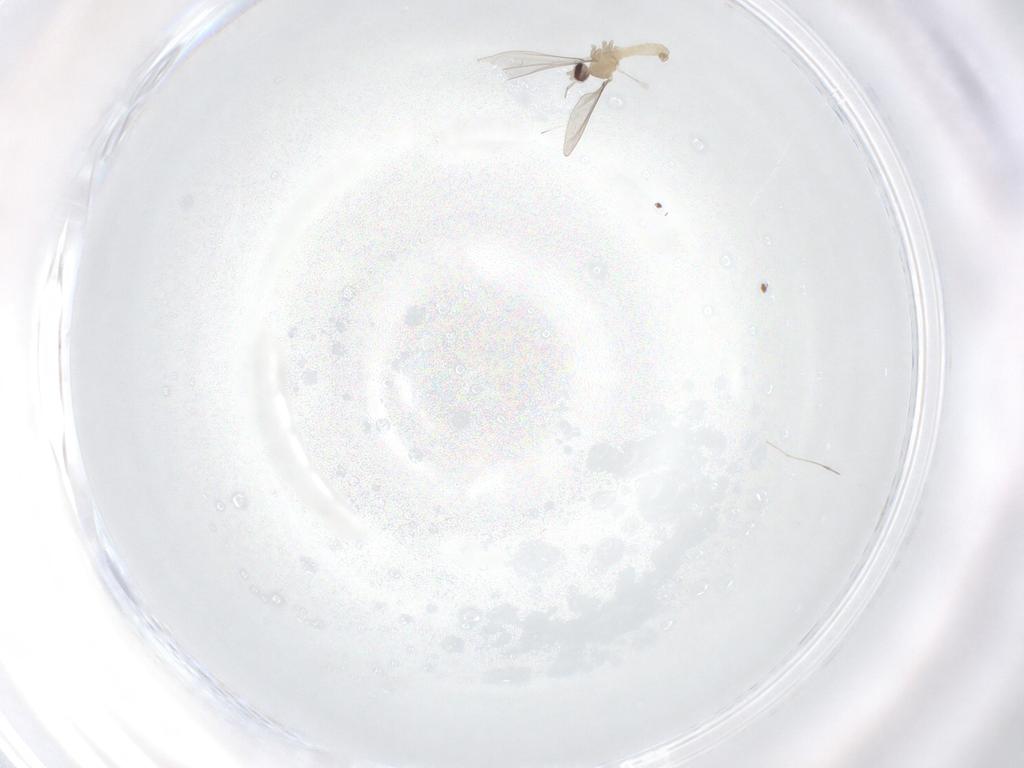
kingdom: Animalia
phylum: Arthropoda
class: Insecta
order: Diptera
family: Cecidomyiidae
